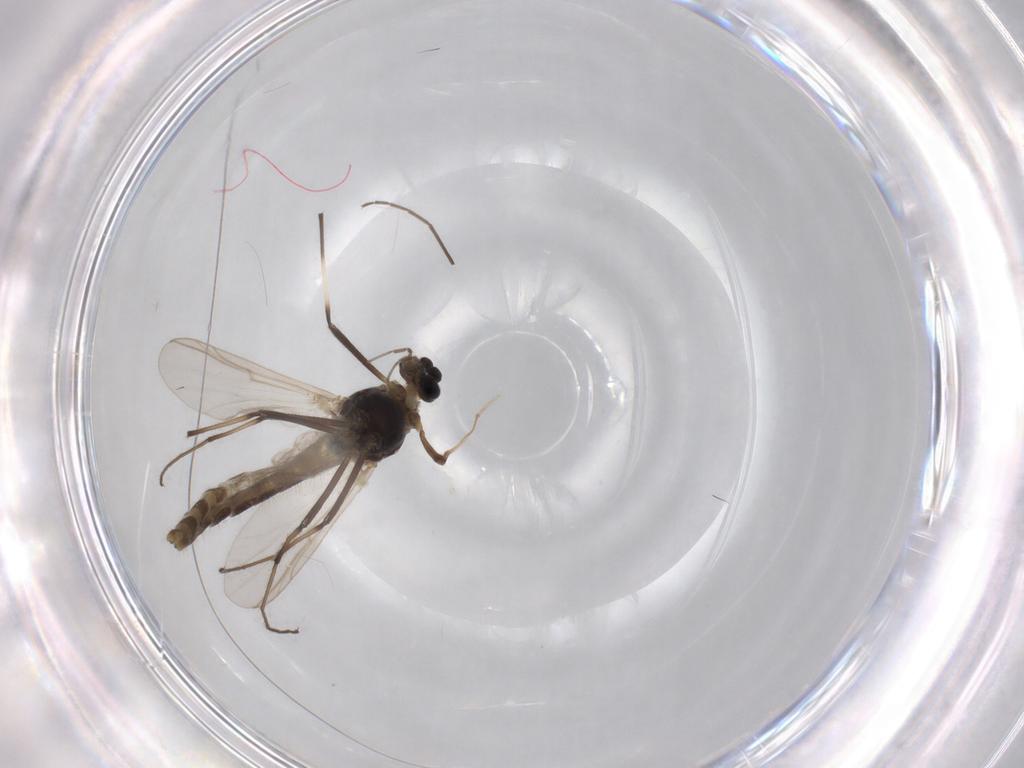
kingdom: Animalia
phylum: Arthropoda
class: Insecta
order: Diptera
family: Chironomidae
